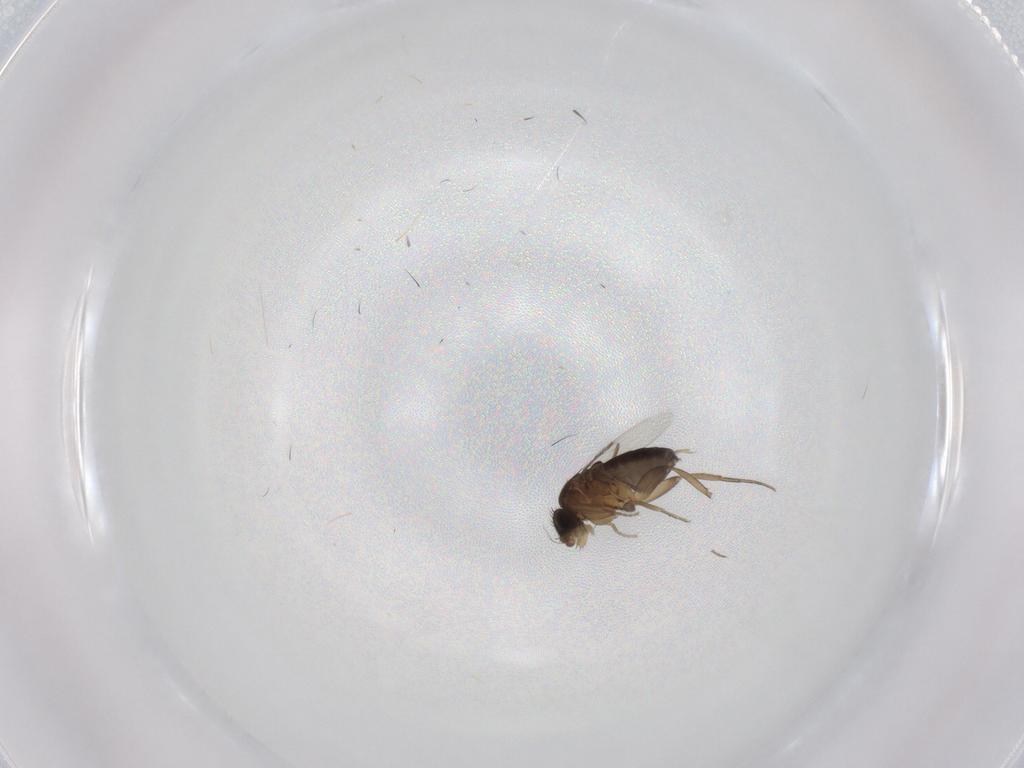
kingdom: Animalia
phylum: Arthropoda
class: Insecta
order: Diptera
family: Phoridae
